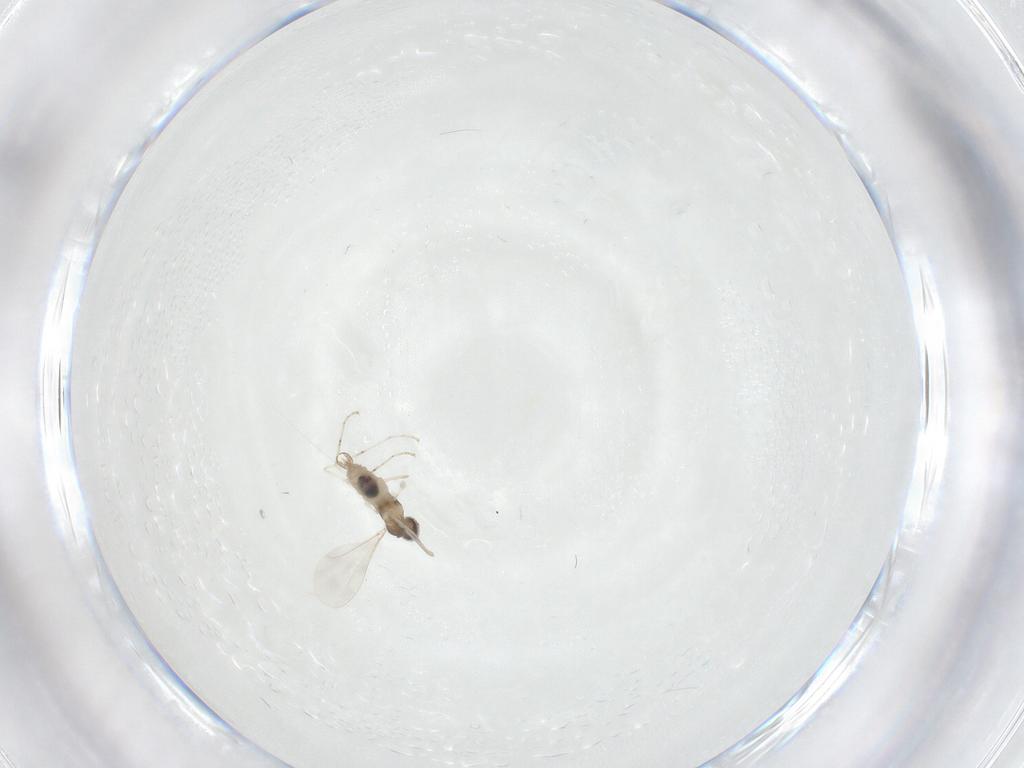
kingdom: Animalia
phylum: Arthropoda
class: Insecta
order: Diptera
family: Cecidomyiidae
